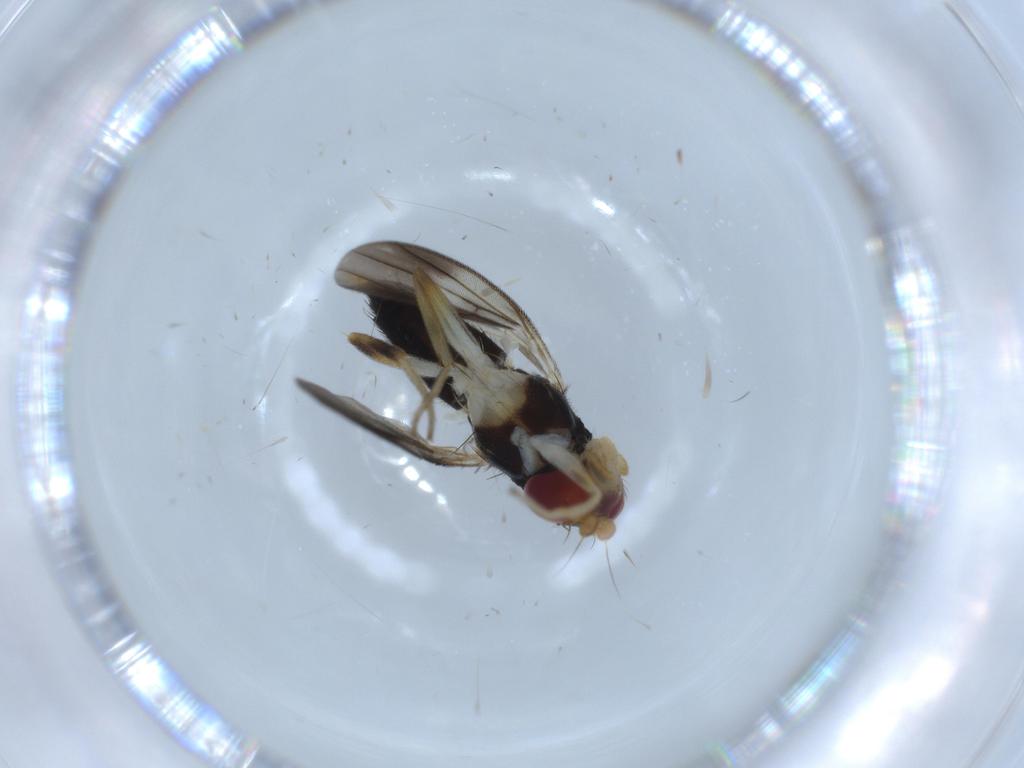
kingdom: Animalia
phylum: Arthropoda
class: Insecta
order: Diptera
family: Clusiidae
